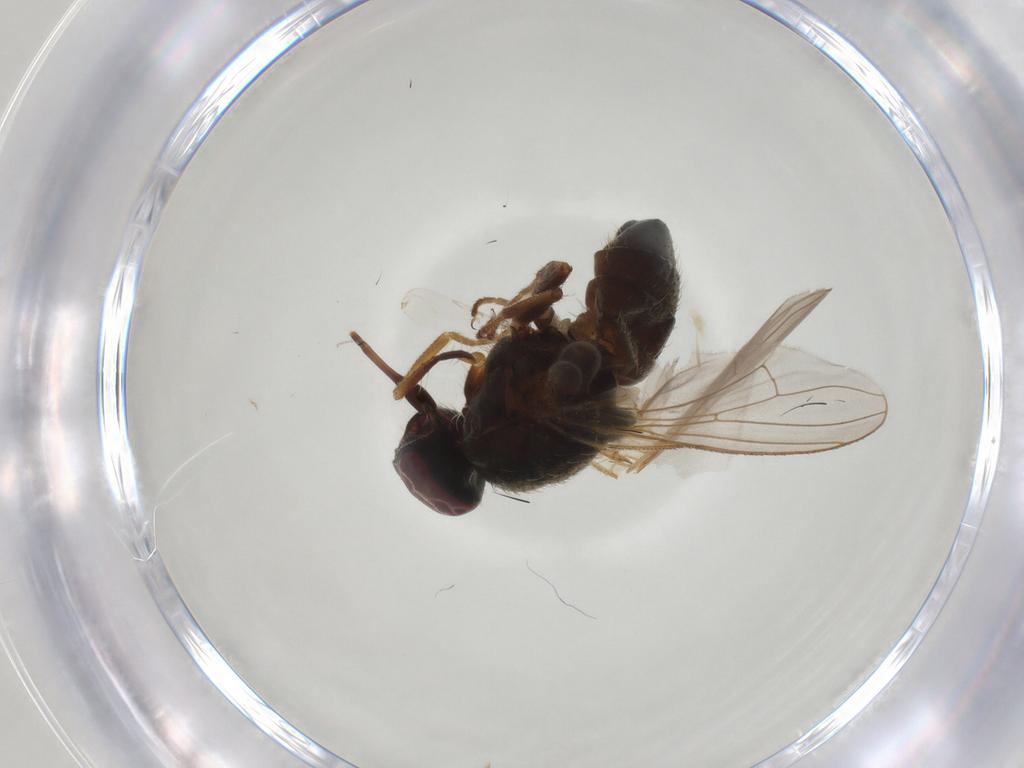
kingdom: Animalia
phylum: Arthropoda
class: Insecta
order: Diptera
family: Muscidae
